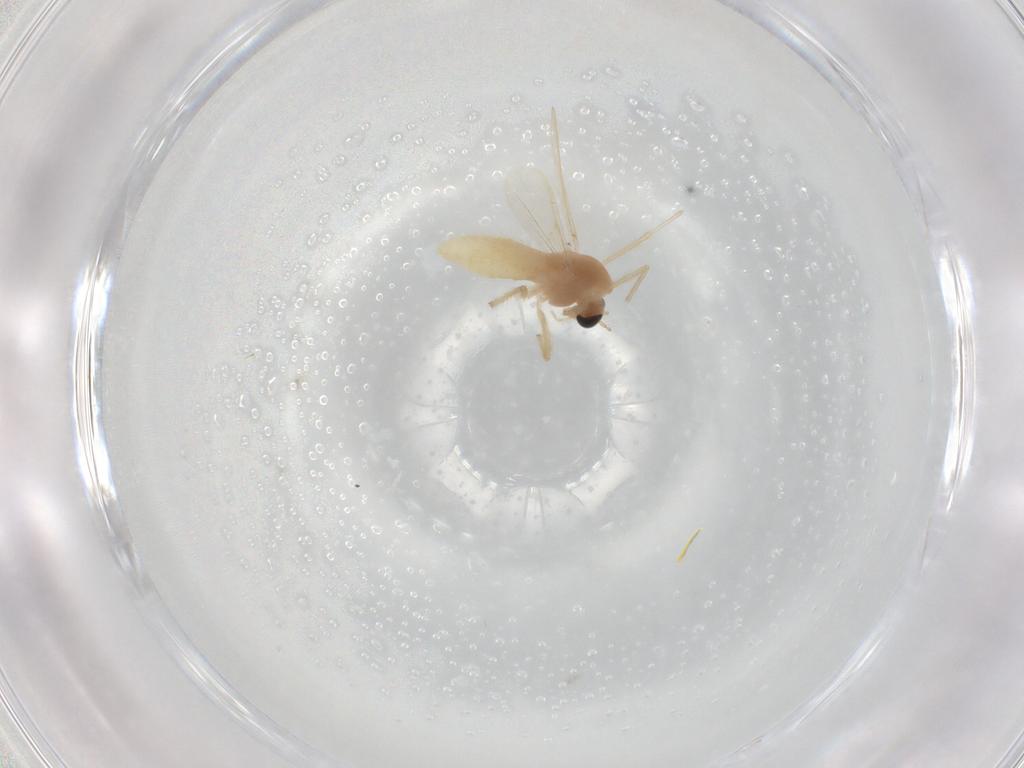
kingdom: Animalia
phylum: Arthropoda
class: Insecta
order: Diptera
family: Chironomidae
